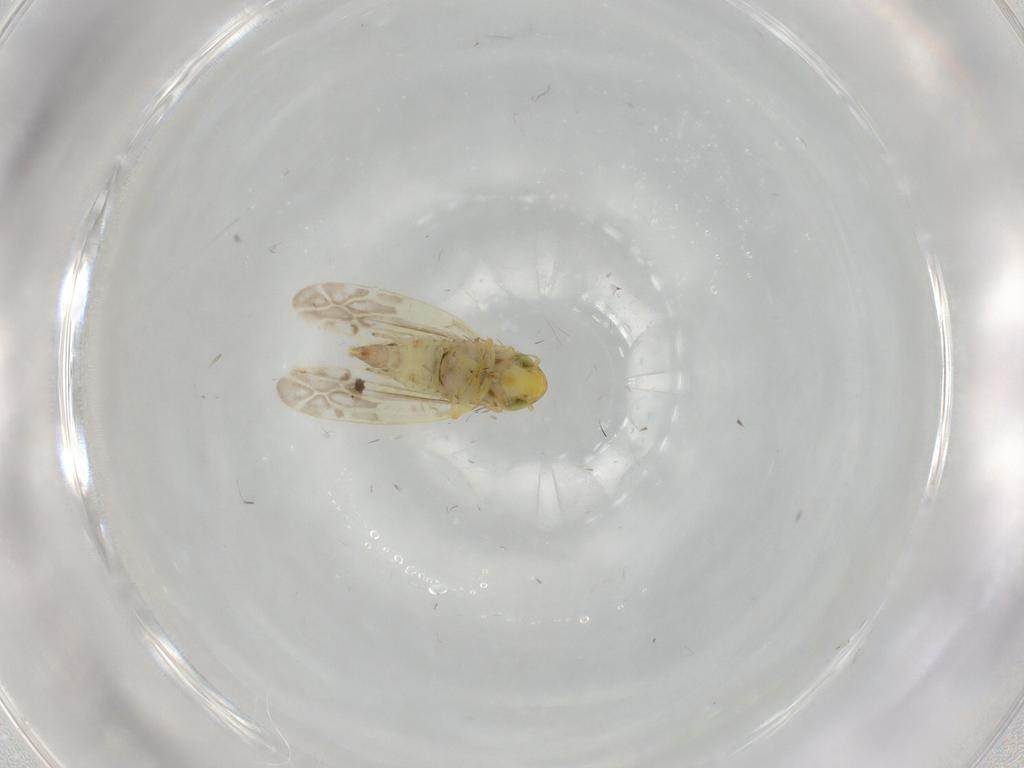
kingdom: Animalia
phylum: Arthropoda
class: Insecta
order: Hemiptera
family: Cicadellidae
